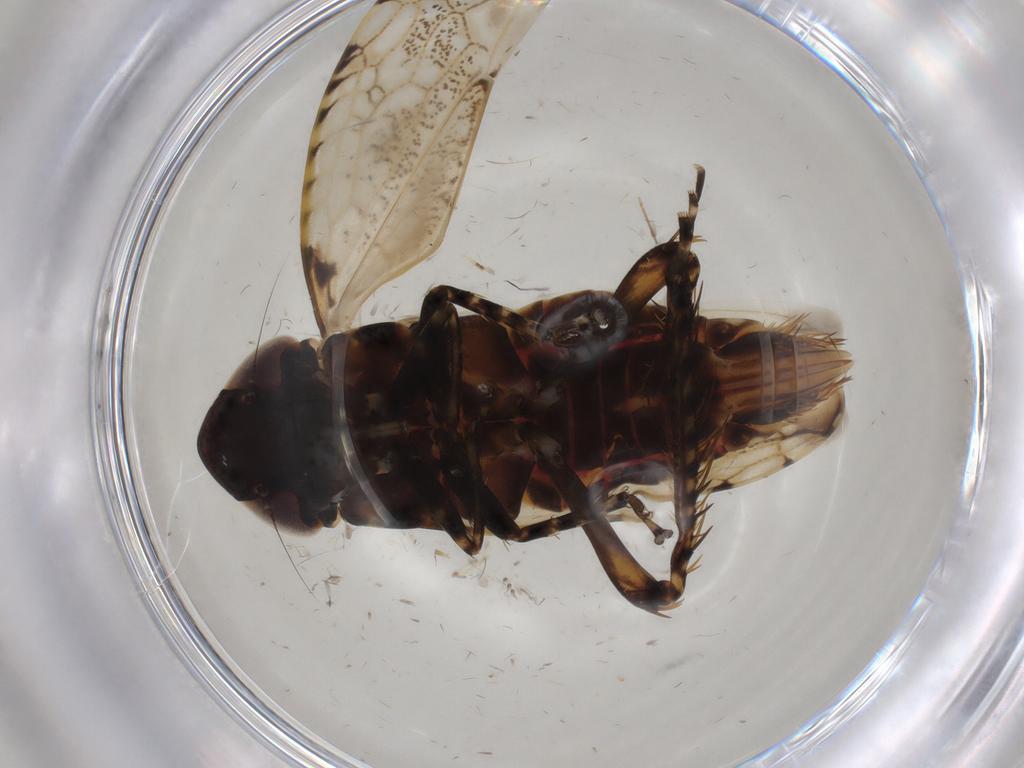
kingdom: Animalia
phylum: Arthropoda
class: Insecta
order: Hemiptera
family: Cicadellidae
